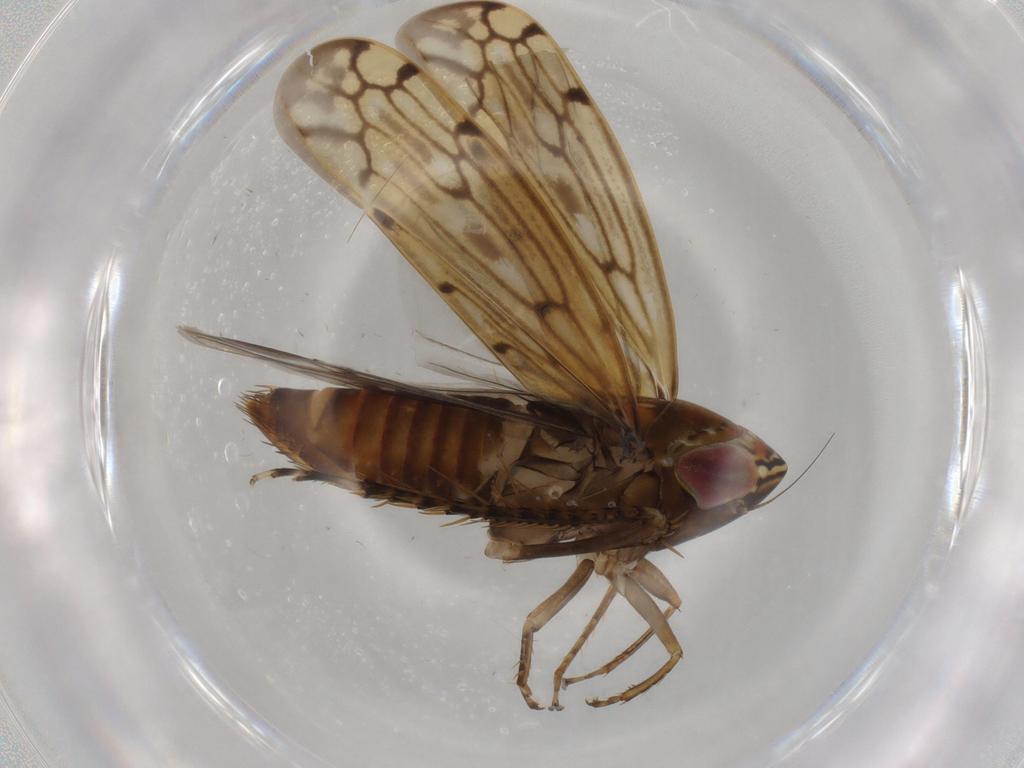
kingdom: Animalia
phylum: Arthropoda
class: Insecta
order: Hemiptera
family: Cicadellidae
